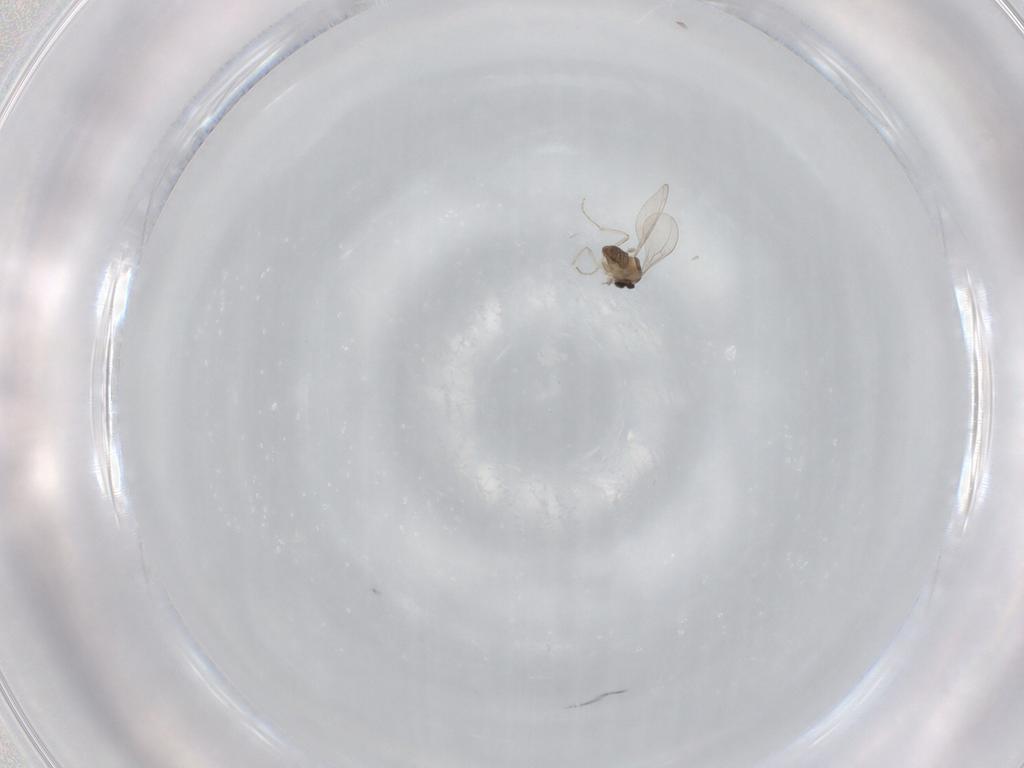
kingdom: Animalia
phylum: Arthropoda
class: Insecta
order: Diptera
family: Cecidomyiidae
